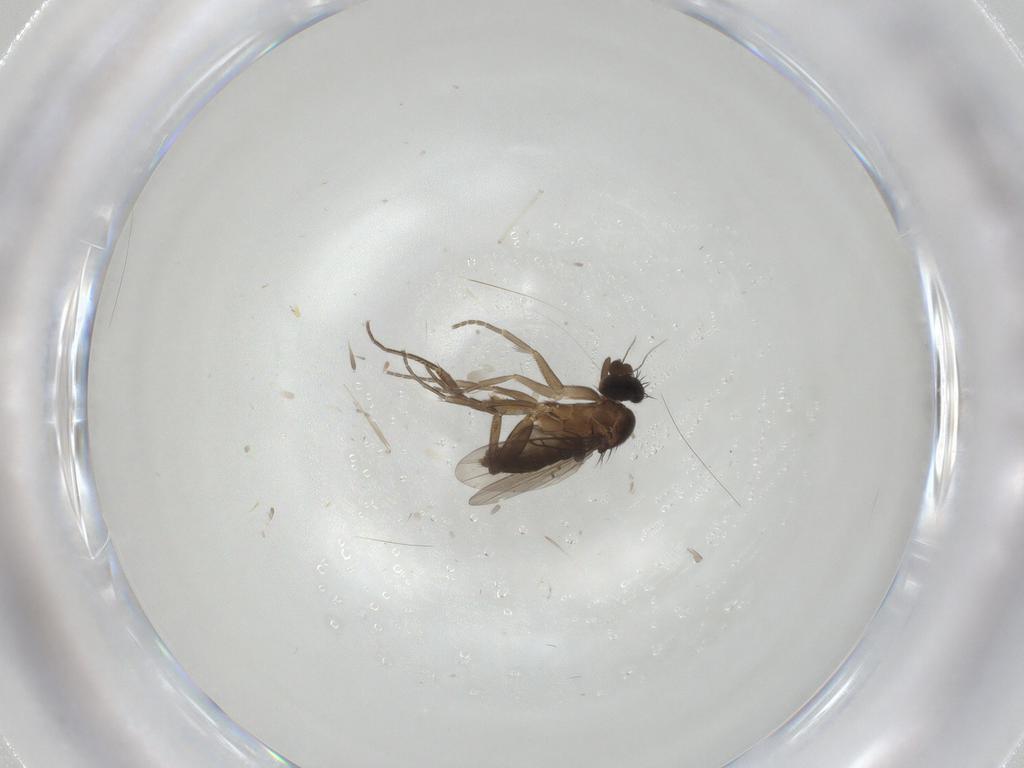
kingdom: Animalia
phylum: Arthropoda
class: Insecta
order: Diptera
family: Phoridae
